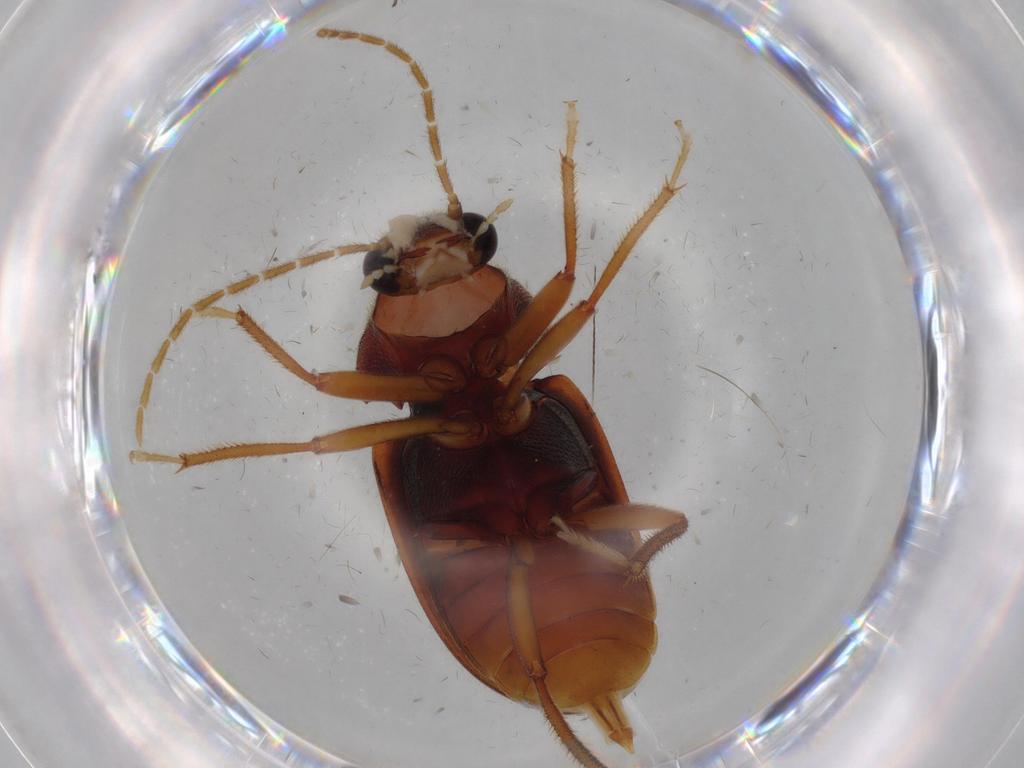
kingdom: Animalia
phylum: Arthropoda
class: Insecta
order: Coleoptera
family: Ptilodactylidae
